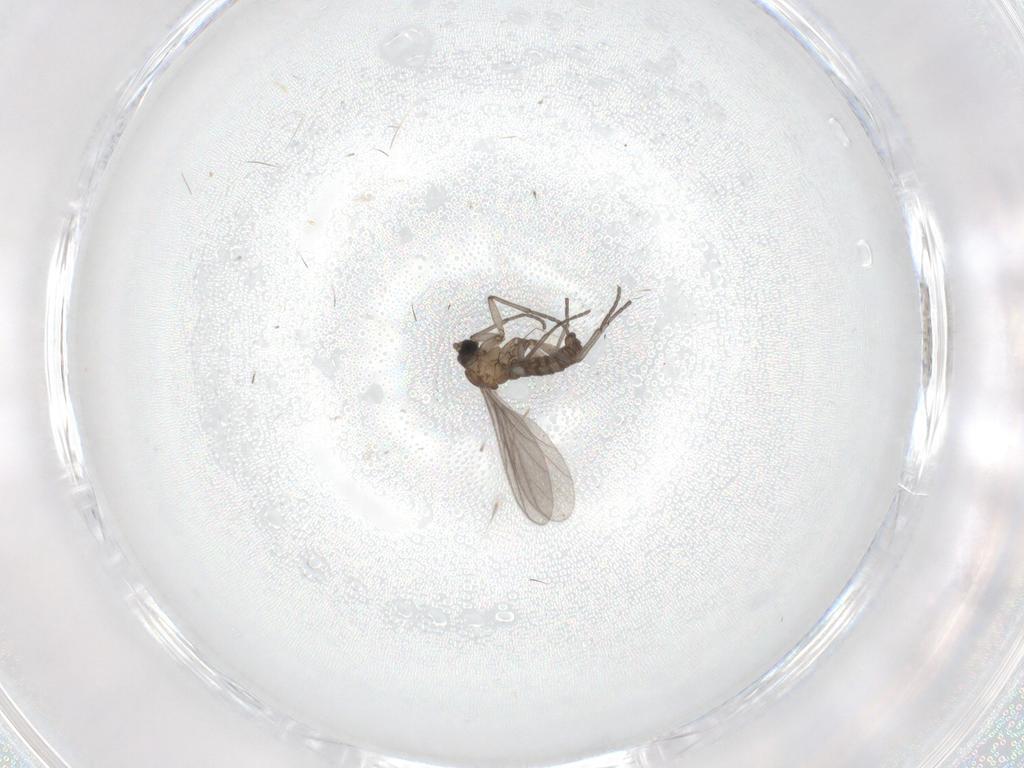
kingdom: Animalia
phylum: Arthropoda
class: Insecta
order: Diptera
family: Sciaridae
